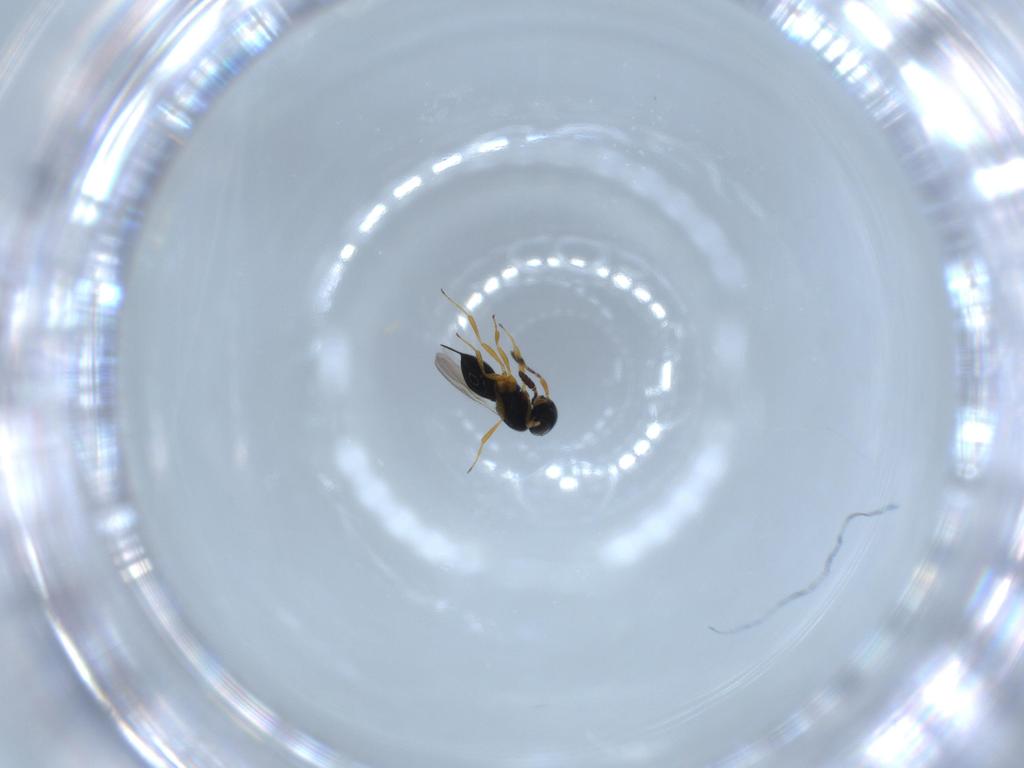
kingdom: Animalia
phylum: Arthropoda
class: Insecta
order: Hymenoptera
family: Scelionidae
